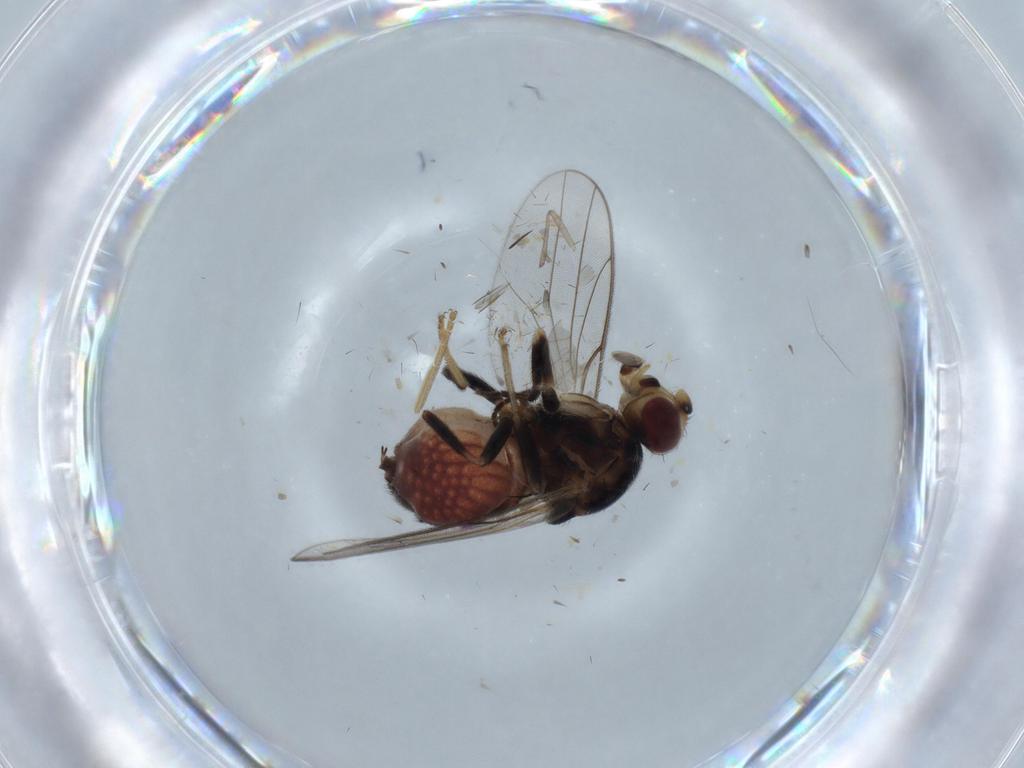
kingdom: Animalia
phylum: Arthropoda
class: Insecta
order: Diptera
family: Chloropidae
